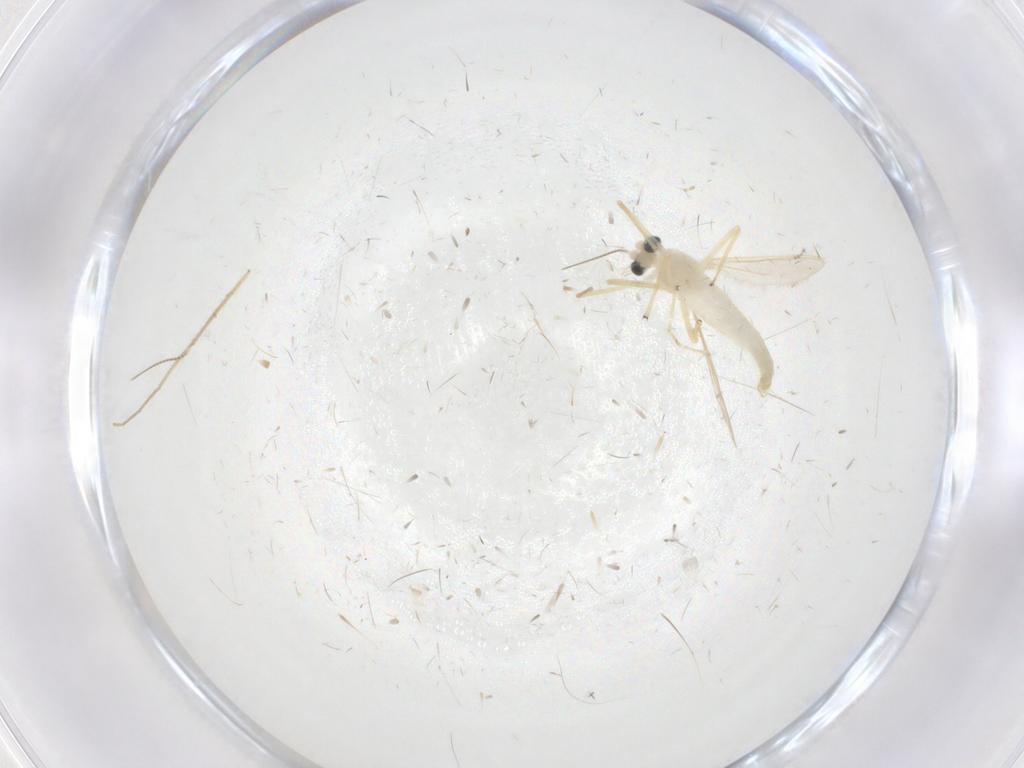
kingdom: Animalia
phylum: Arthropoda
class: Insecta
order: Diptera
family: Chironomidae
